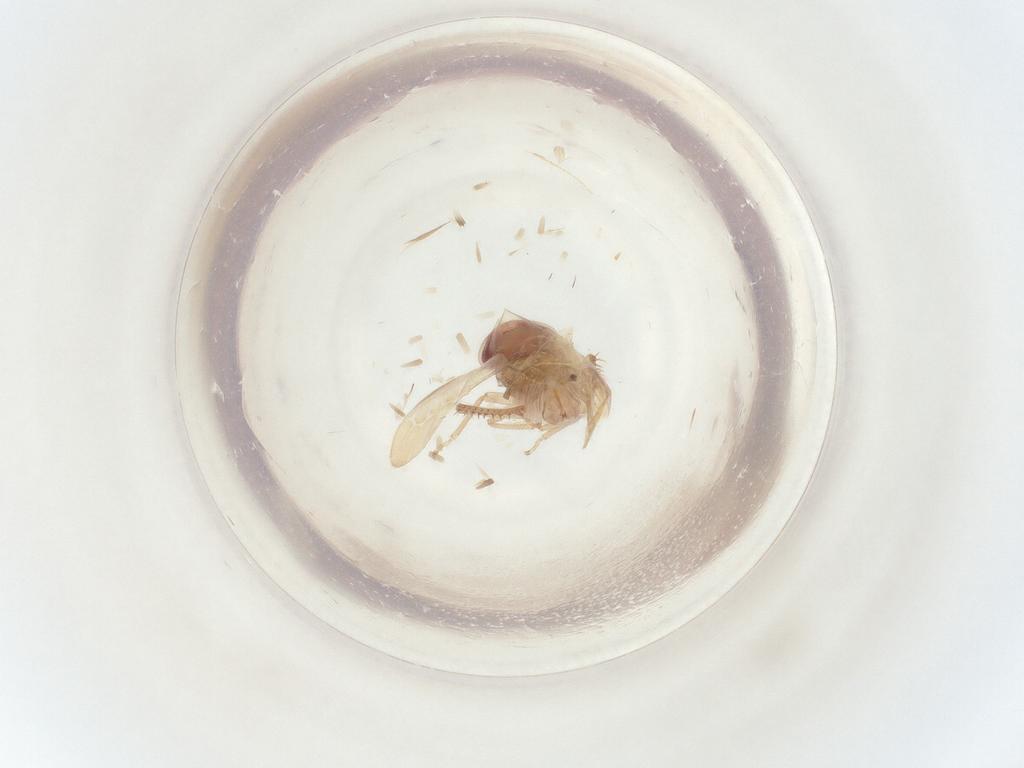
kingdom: Animalia
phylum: Arthropoda
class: Insecta
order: Hemiptera
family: Cicadellidae
